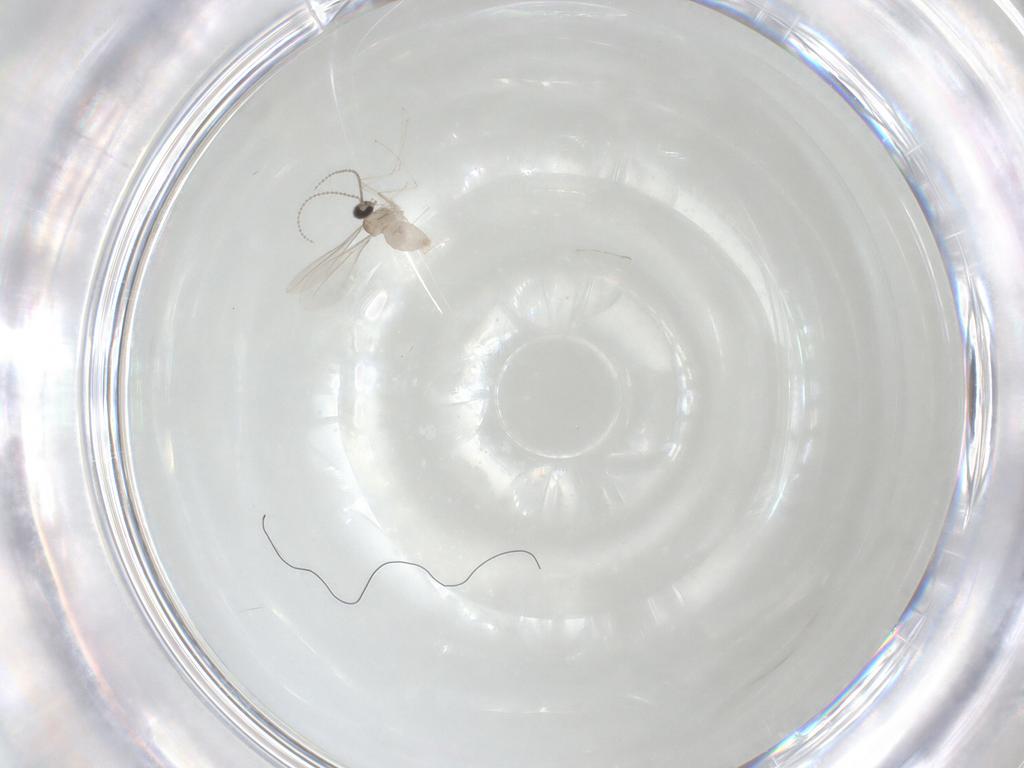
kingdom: Animalia
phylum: Arthropoda
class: Insecta
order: Diptera
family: Cecidomyiidae
